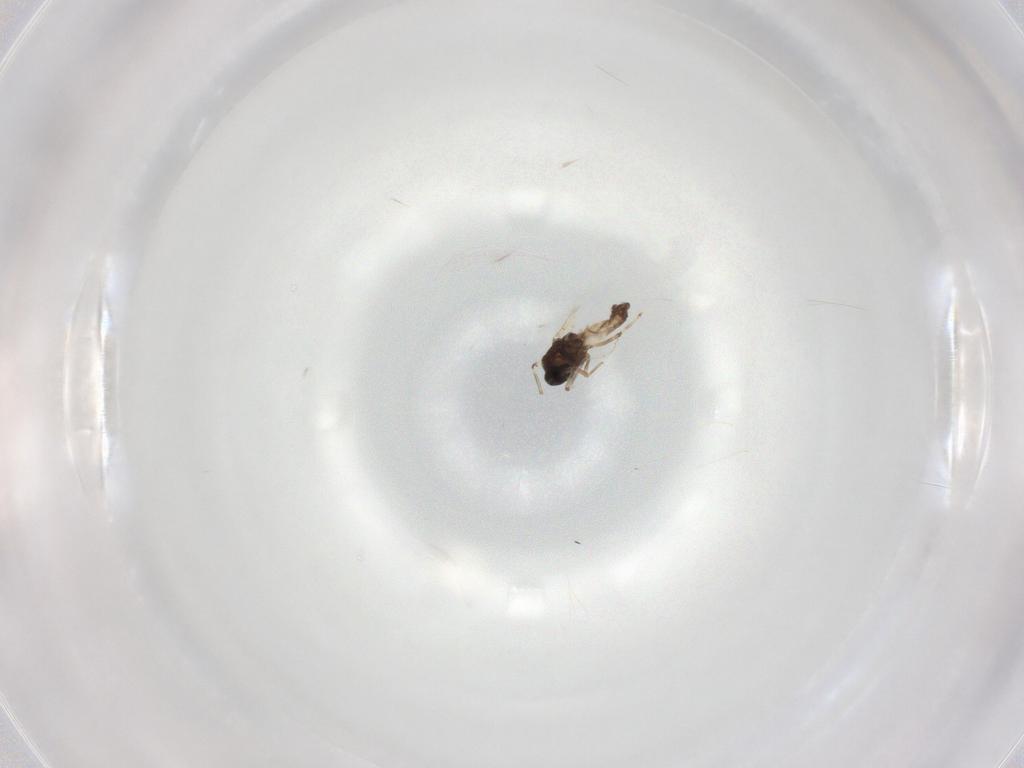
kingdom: Animalia
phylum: Arthropoda
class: Insecta
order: Diptera
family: Ceratopogonidae
